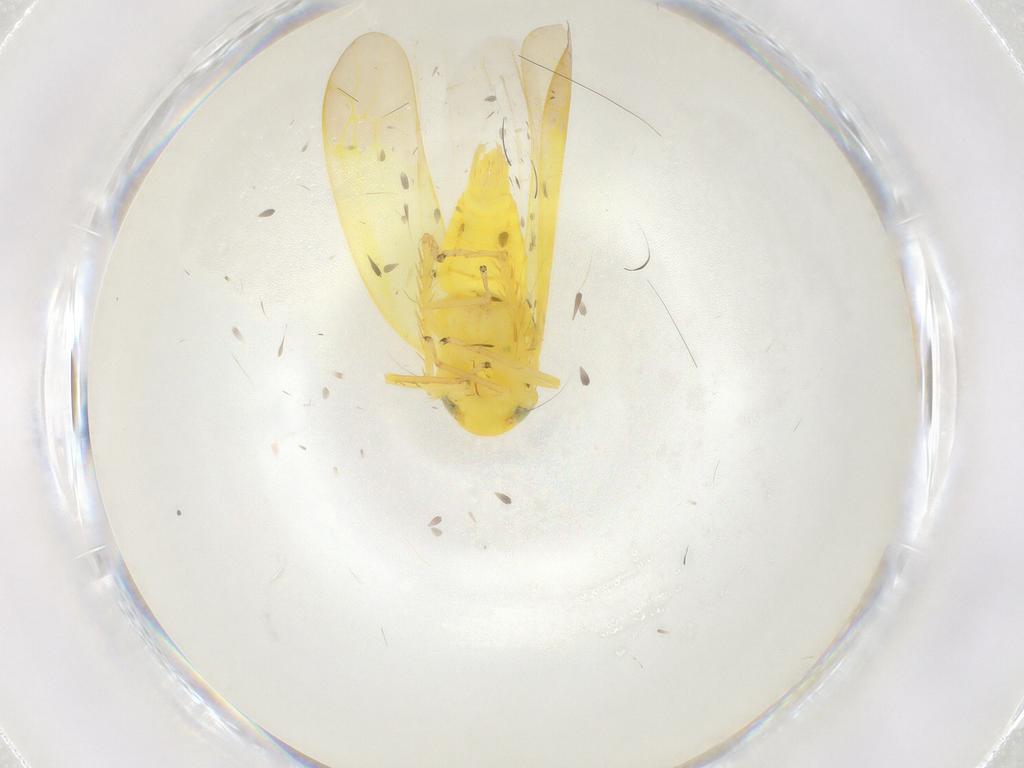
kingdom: Animalia
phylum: Arthropoda
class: Insecta
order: Hemiptera
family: Cicadellidae
